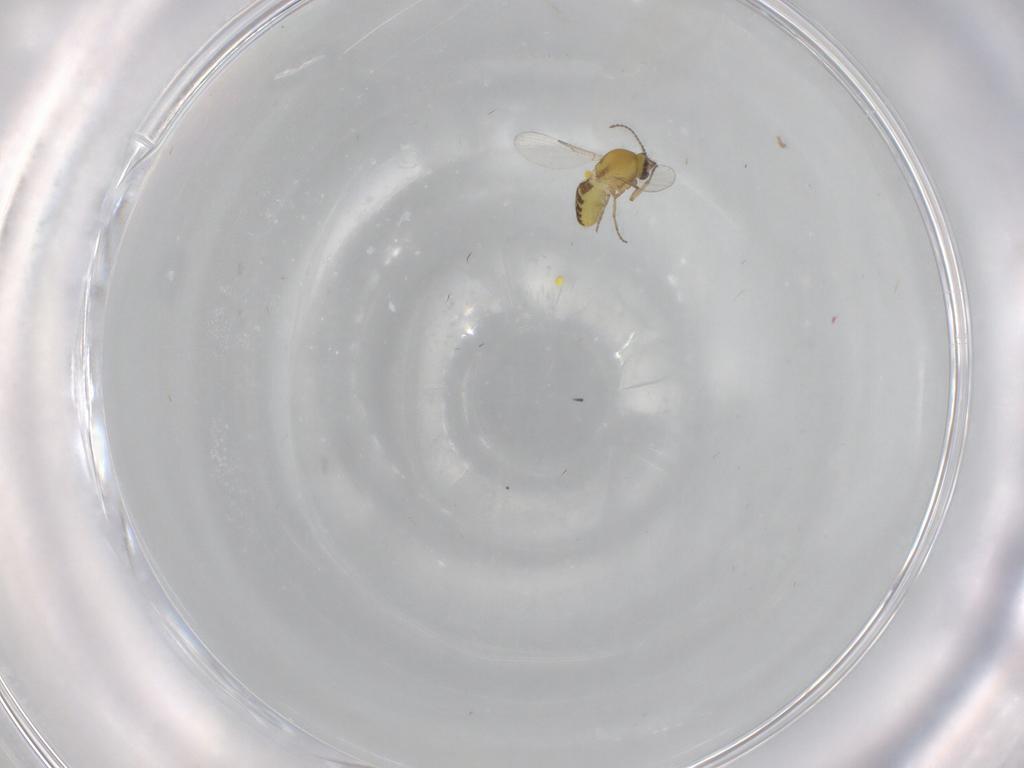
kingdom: Animalia
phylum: Arthropoda
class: Insecta
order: Diptera
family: Ceratopogonidae
